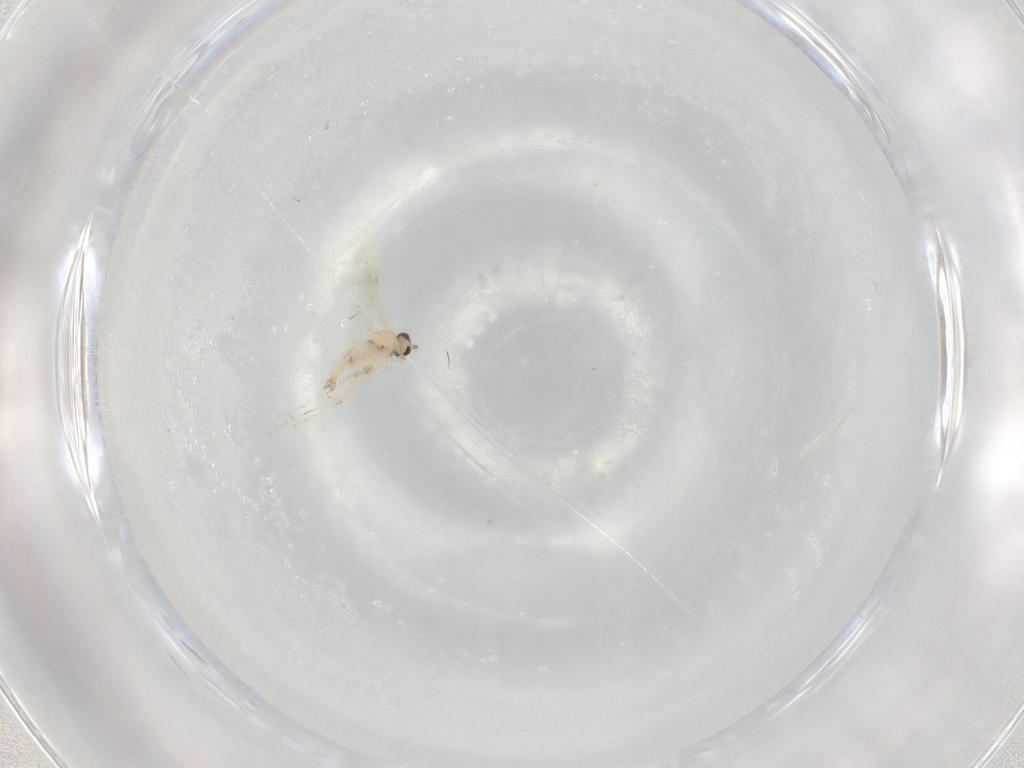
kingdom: Animalia
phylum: Arthropoda
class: Insecta
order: Diptera
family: Cecidomyiidae
